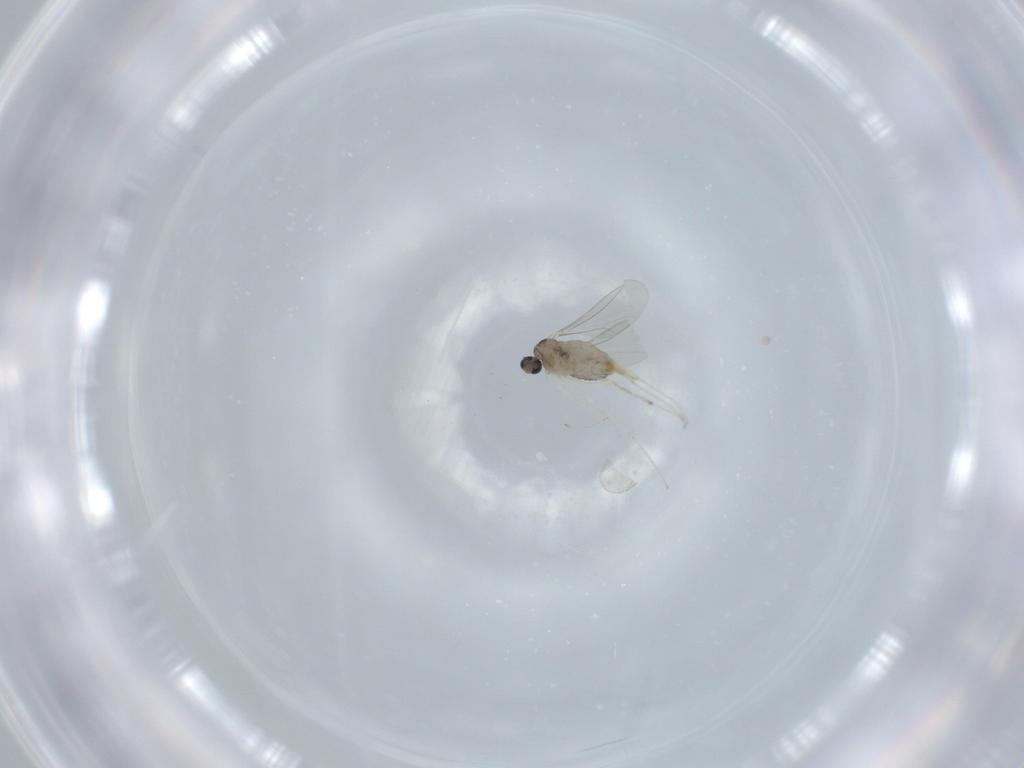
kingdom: Animalia
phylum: Arthropoda
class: Insecta
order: Diptera
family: Cecidomyiidae
